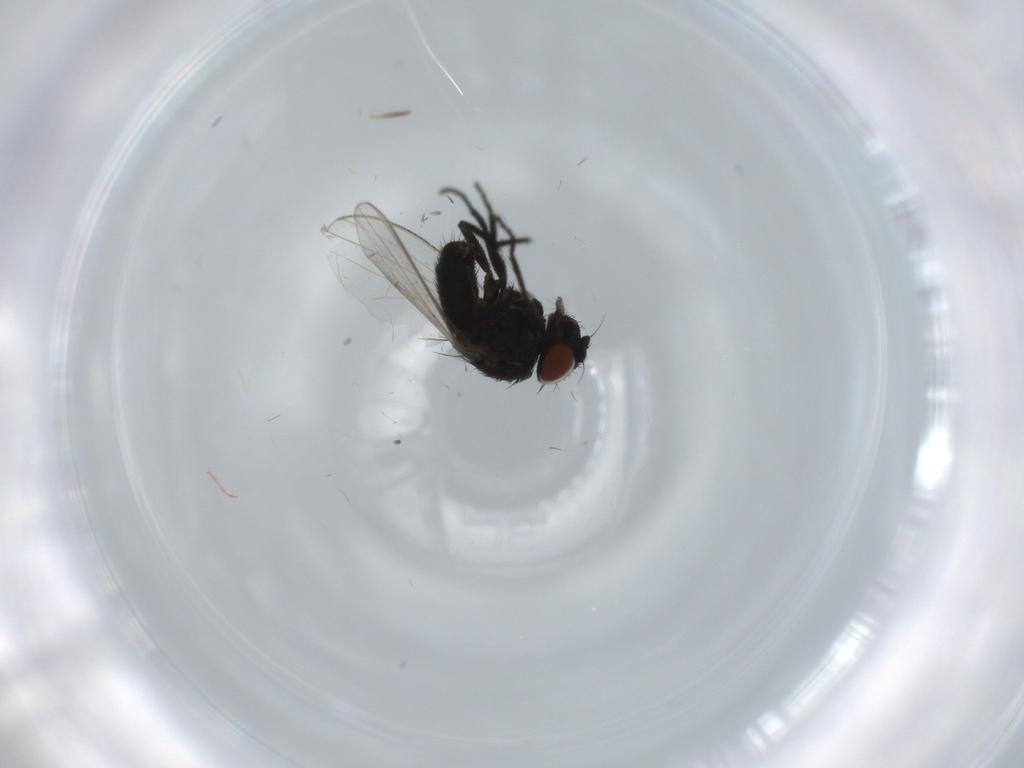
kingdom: Animalia
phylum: Arthropoda
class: Insecta
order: Diptera
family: Milichiidae
